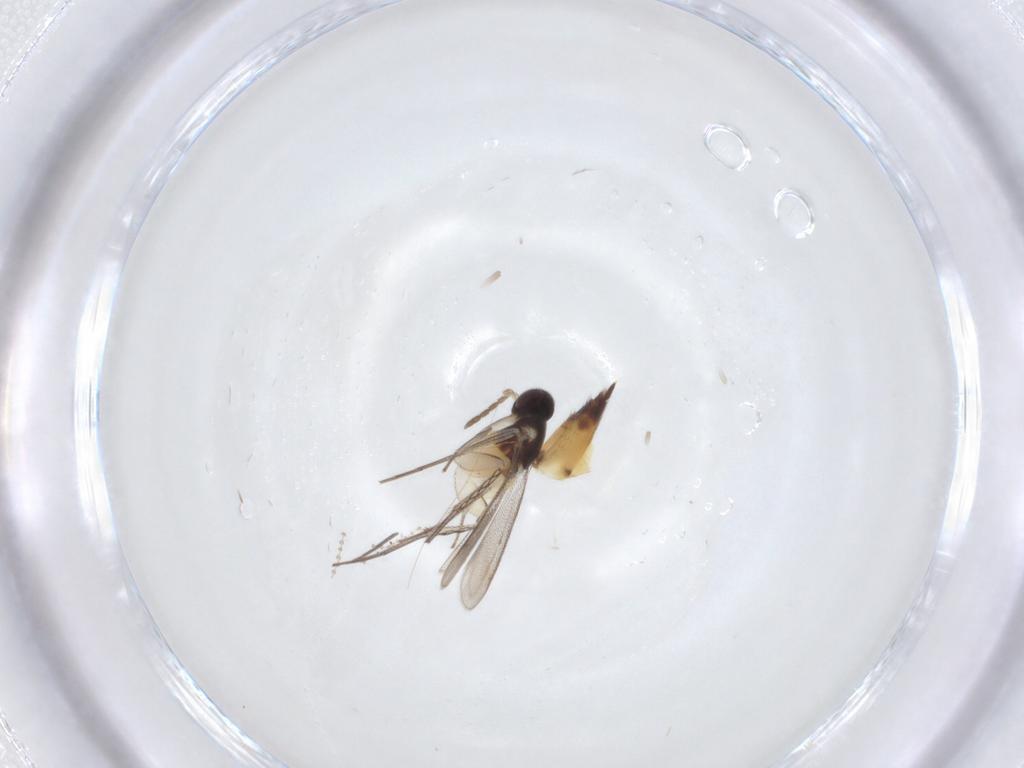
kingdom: Animalia
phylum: Arthropoda
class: Insecta
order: Hymenoptera
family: Eulophidae
